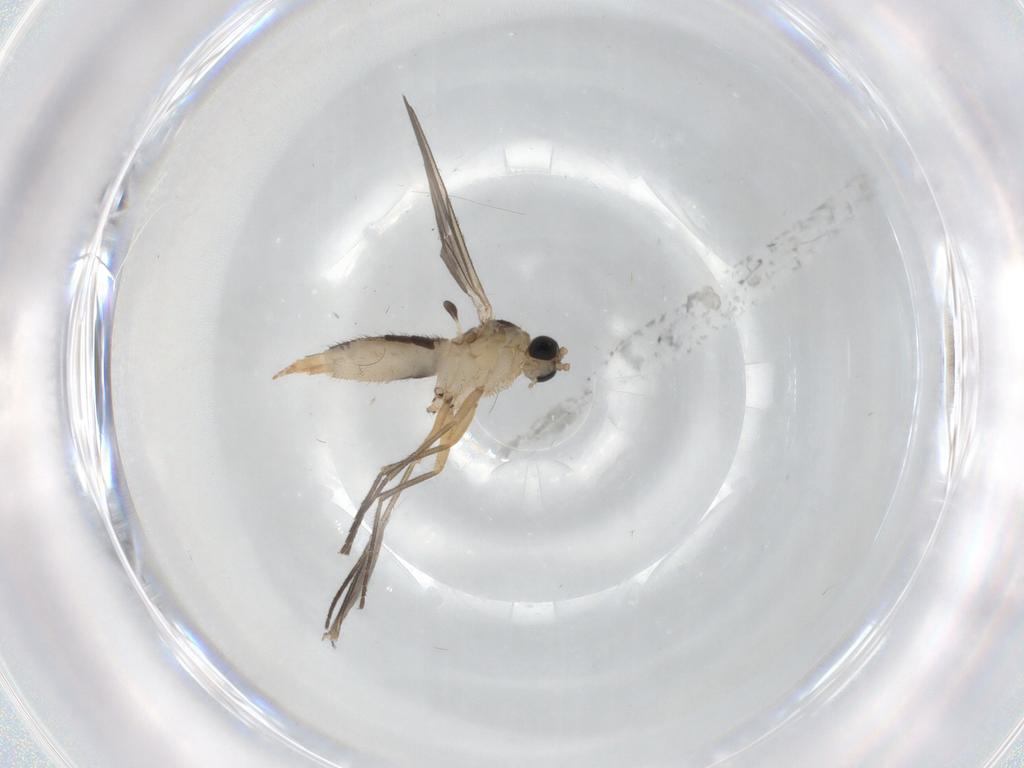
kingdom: Animalia
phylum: Arthropoda
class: Insecta
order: Diptera
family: Sciaridae
